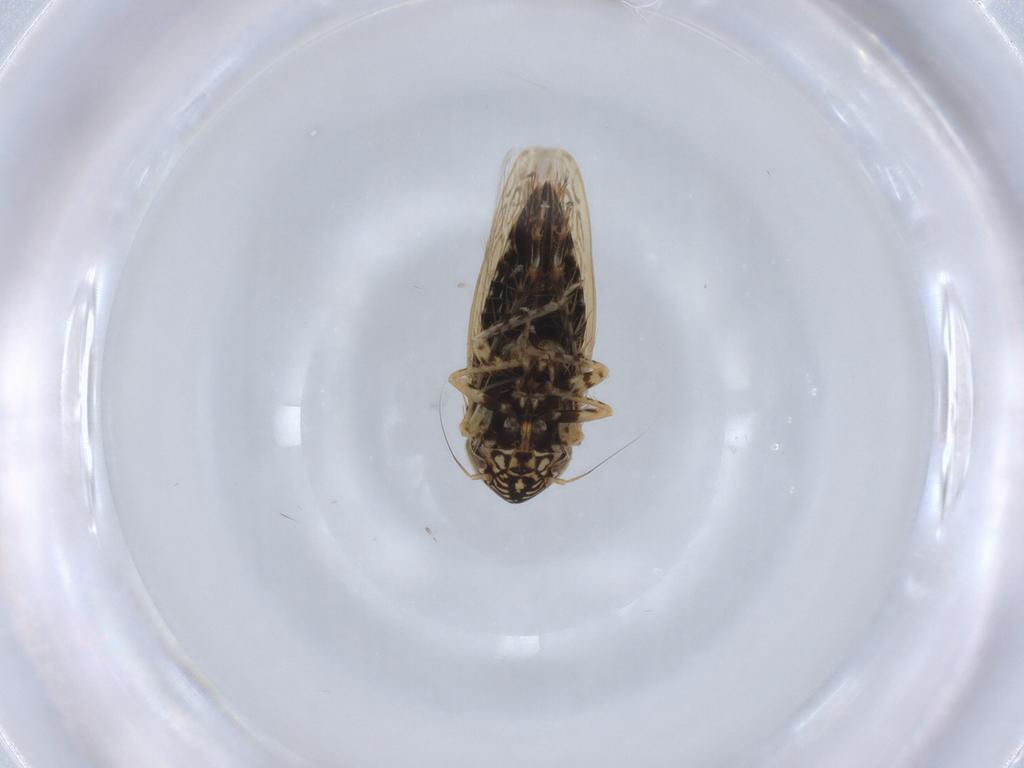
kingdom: Animalia
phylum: Arthropoda
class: Insecta
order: Hemiptera
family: Cicadellidae
